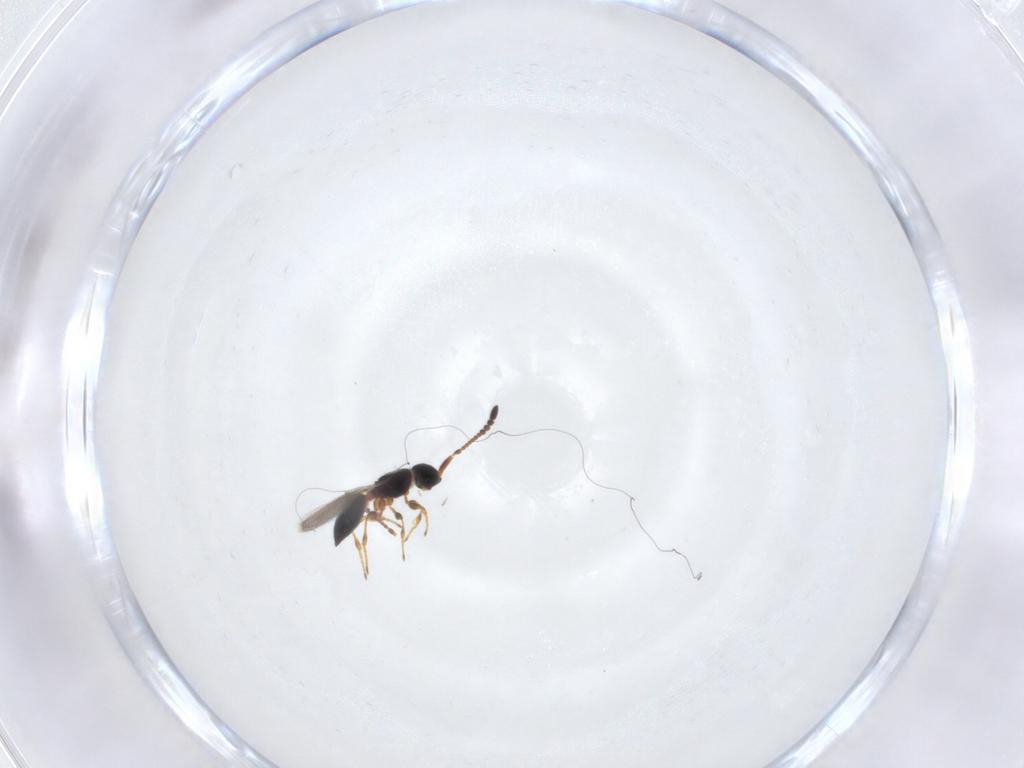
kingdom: Animalia
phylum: Arthropoda
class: Insecta
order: Hymenoptera
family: Diapriidae
